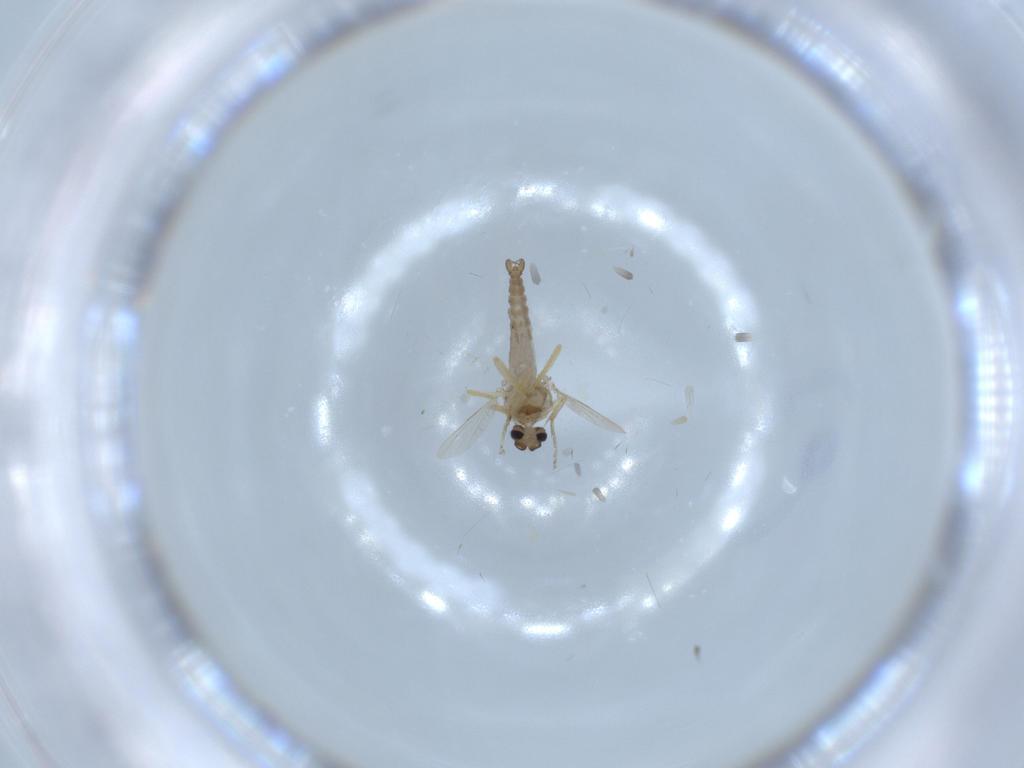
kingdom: Animalia
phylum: Arthropoda
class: Insecta
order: Diptera
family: Ceratopogonidae
